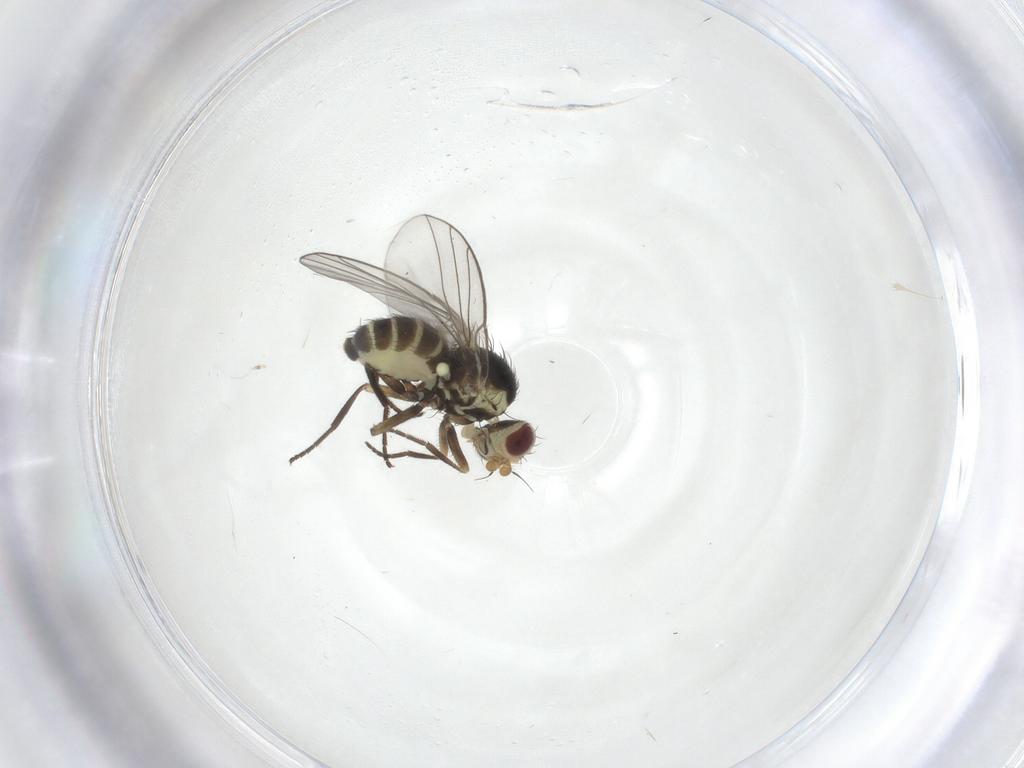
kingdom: Animalia
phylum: Arthropoda
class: Insecta
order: Diptera
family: Agromyzidae
